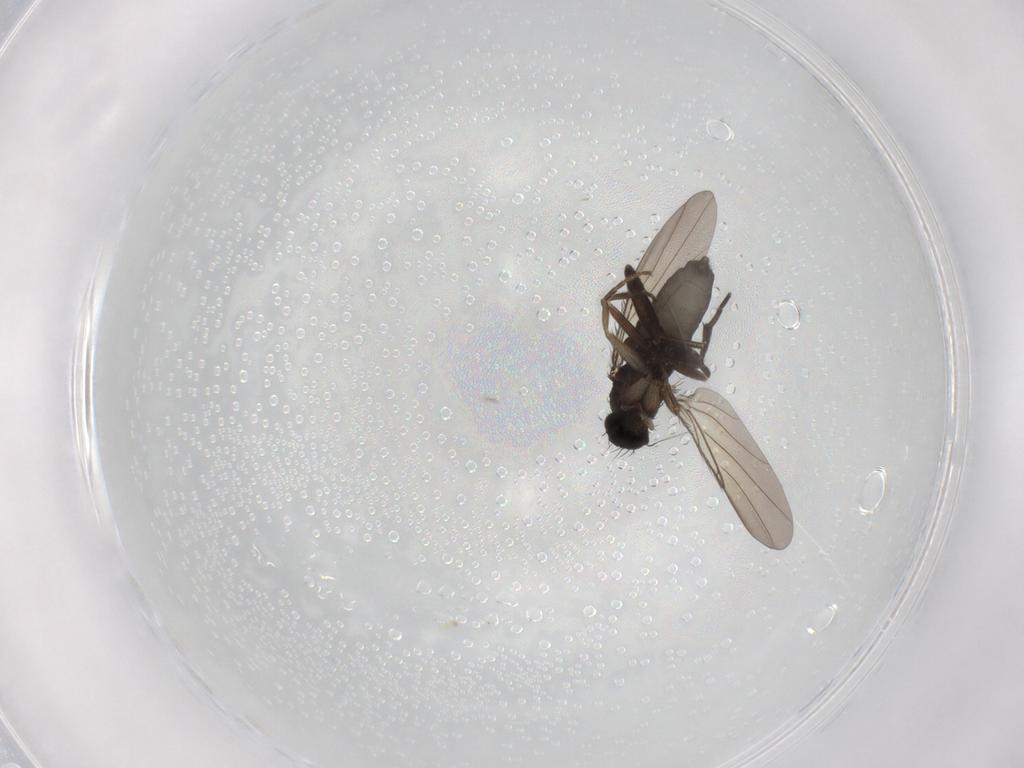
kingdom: Animalia
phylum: Arthropoda
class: Insecta
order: Diptera
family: Phoridae
